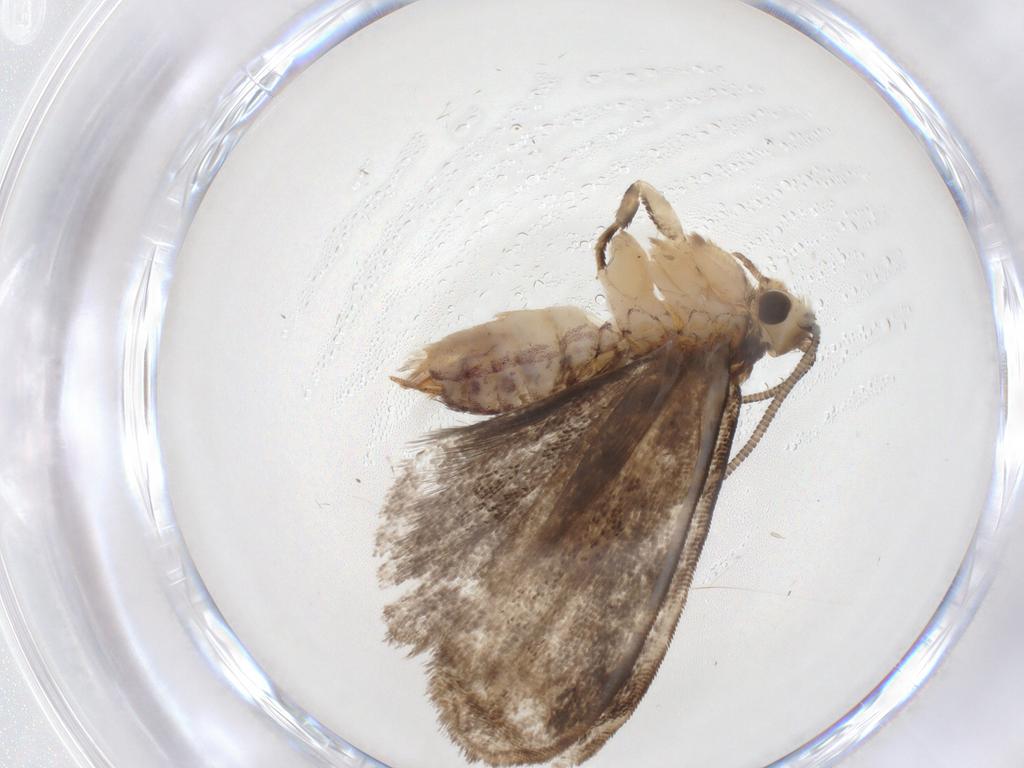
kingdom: Animalia
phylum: Arthropoda
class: Insecta
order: Lepidoptera
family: Dryadaulidae
